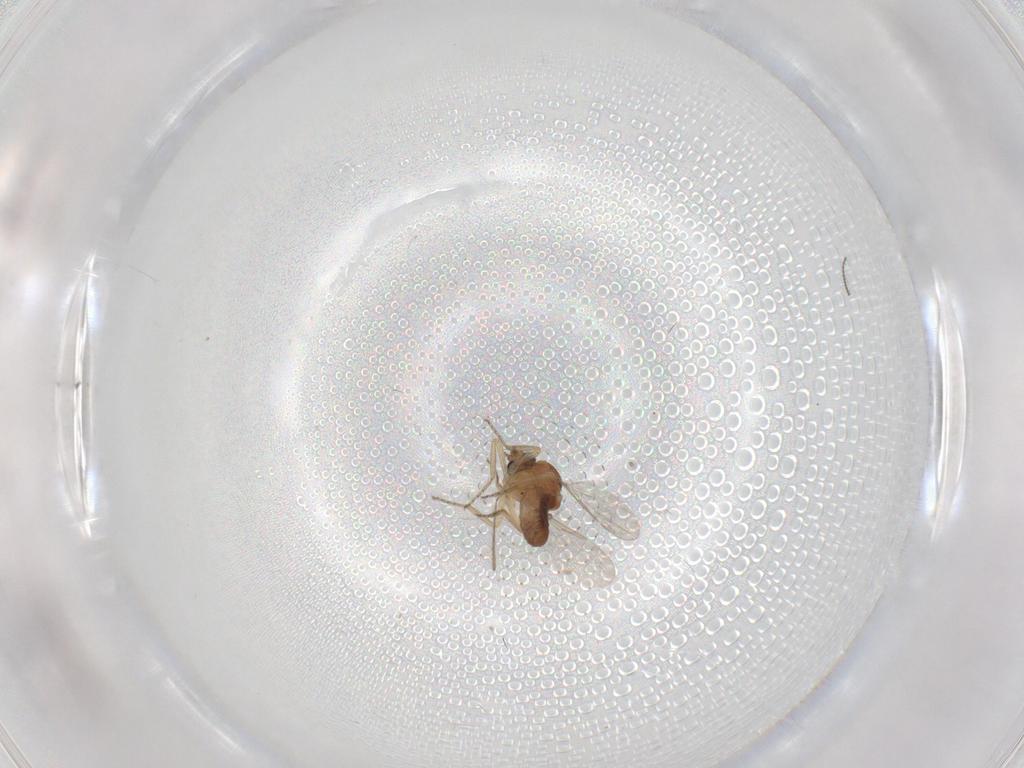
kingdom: Animalia
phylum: Arthropoda
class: Insecta
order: Diptera
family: Ceratopogonidae
